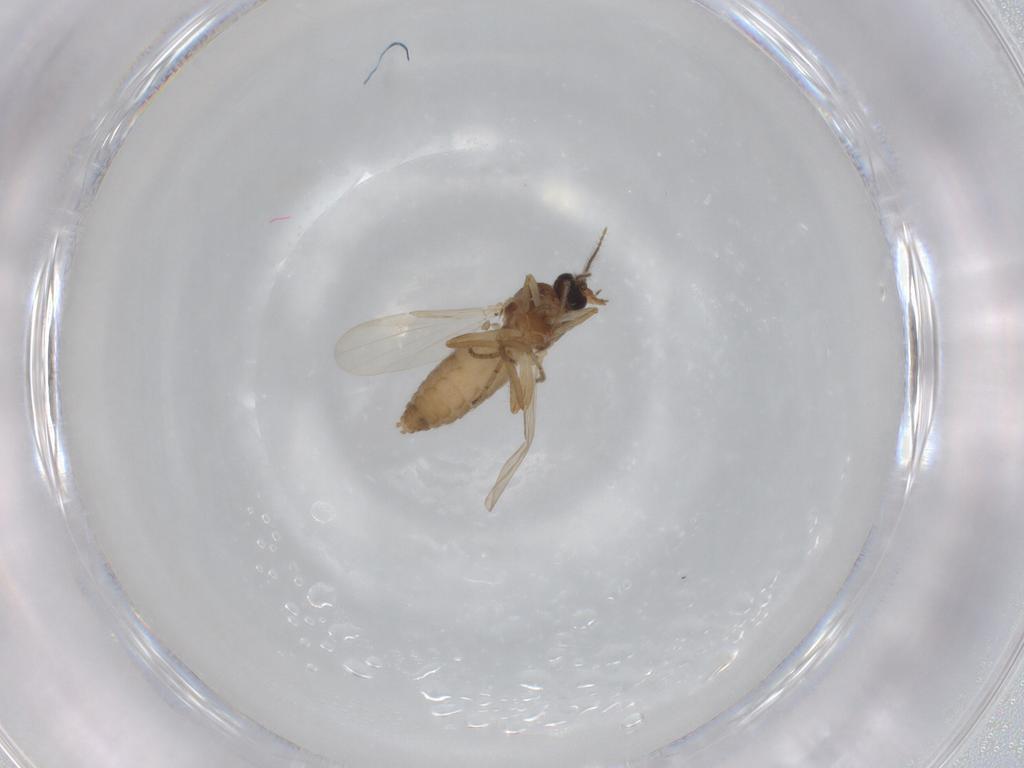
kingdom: Animalia
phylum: Arthropoda
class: Insecta
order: Diptera
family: Ceratopogonidae
